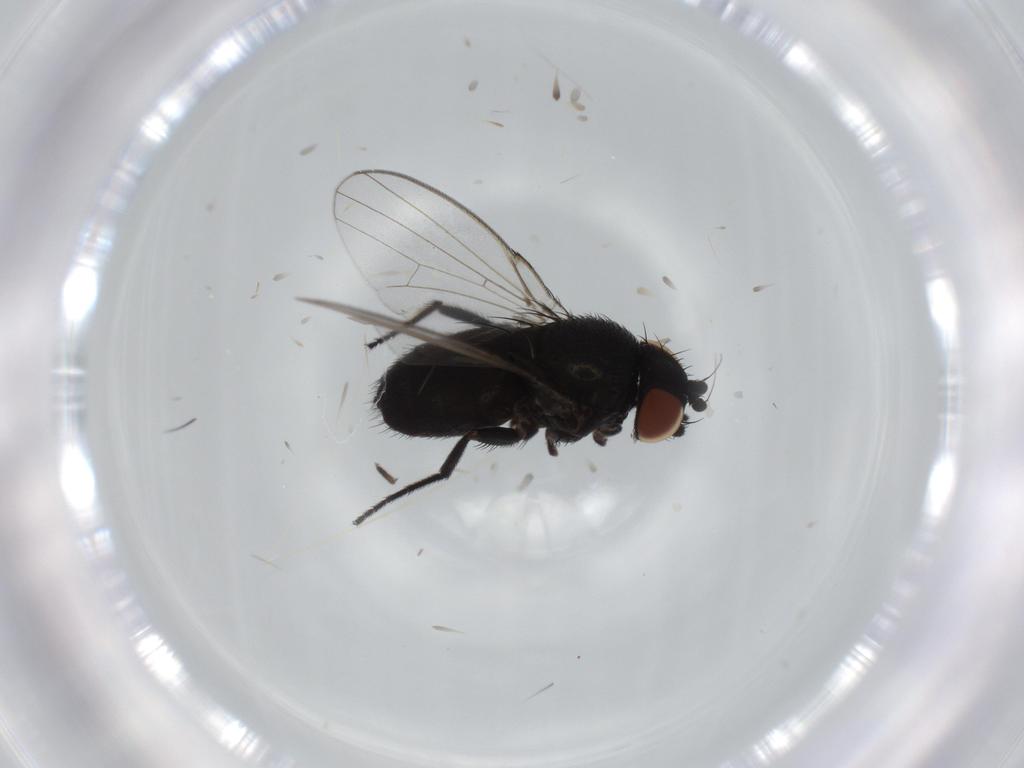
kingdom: Animalia
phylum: Arthropoda
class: Insecta
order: Diptera
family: Milichiidae
